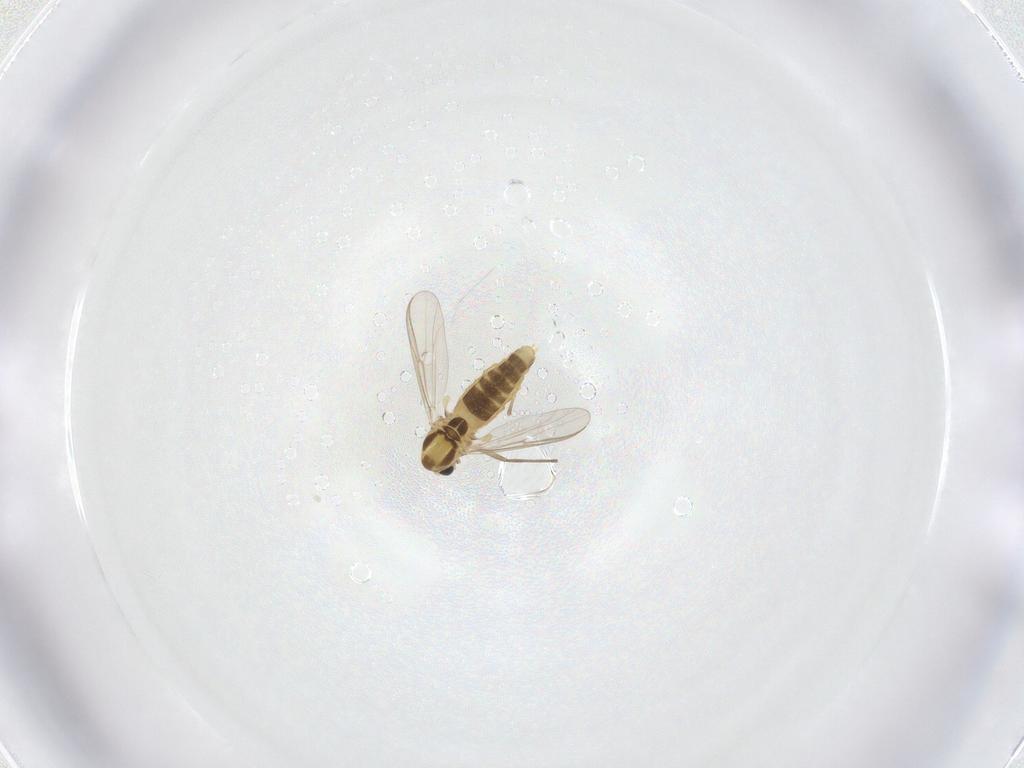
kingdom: Animalia
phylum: Arthropoda
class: Insecta
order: Diptera
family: Chironomidae
